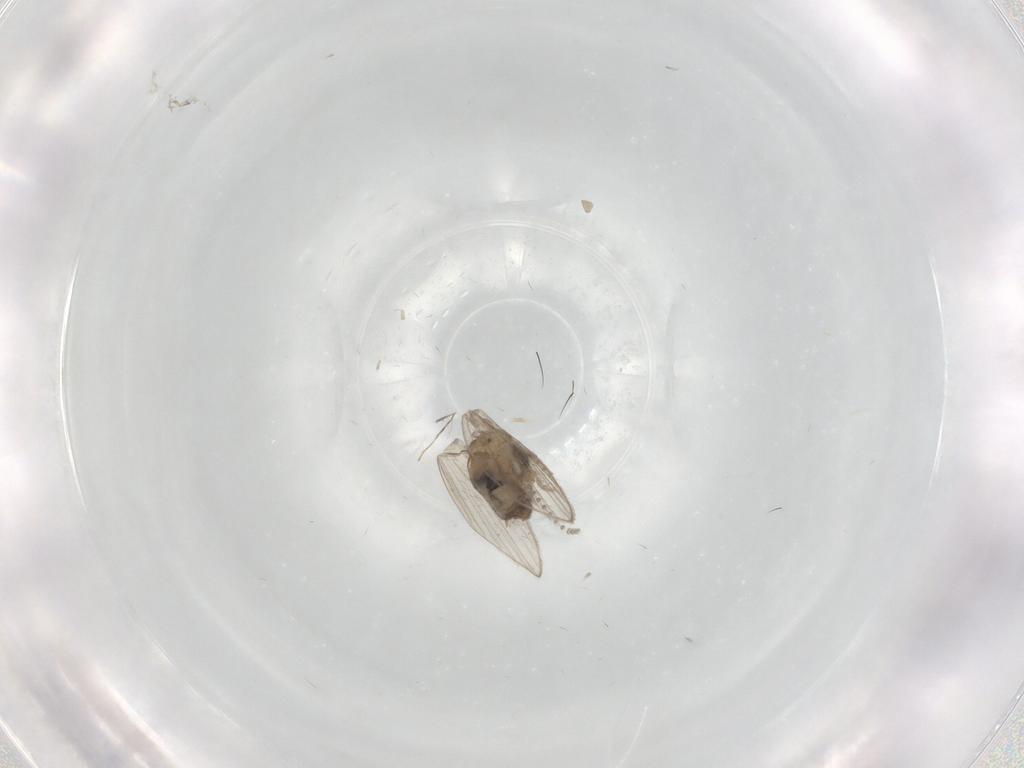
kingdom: Animalia
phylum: Arthropoda
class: Insecta
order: Diptera
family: Psychodidae
